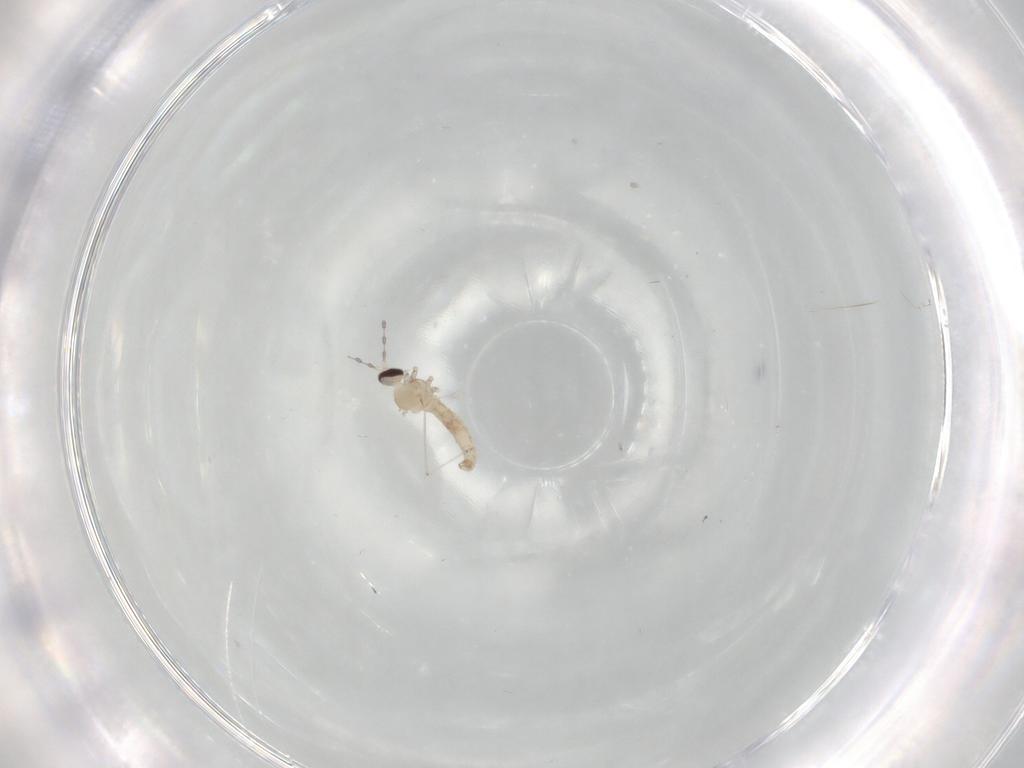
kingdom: Animalia
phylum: Arthropoda
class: Insecta
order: Diptera
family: Cecidomyiidae
